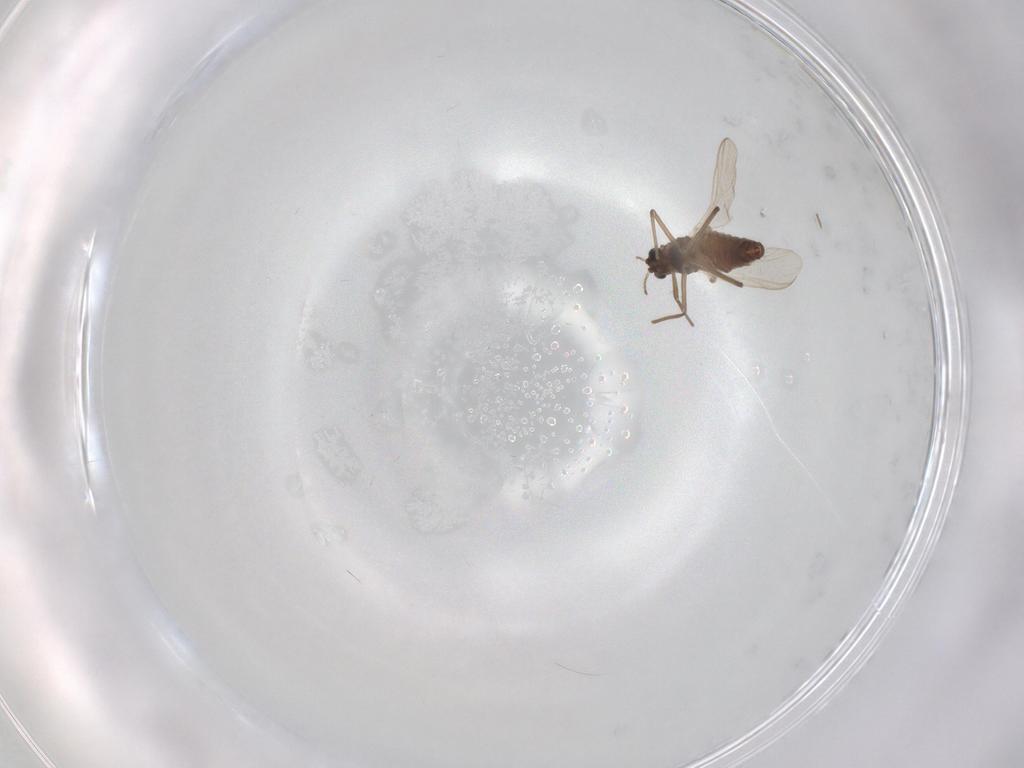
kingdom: Animalia
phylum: Arthropoda
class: Insecta
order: Diptera
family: Chironomidae
